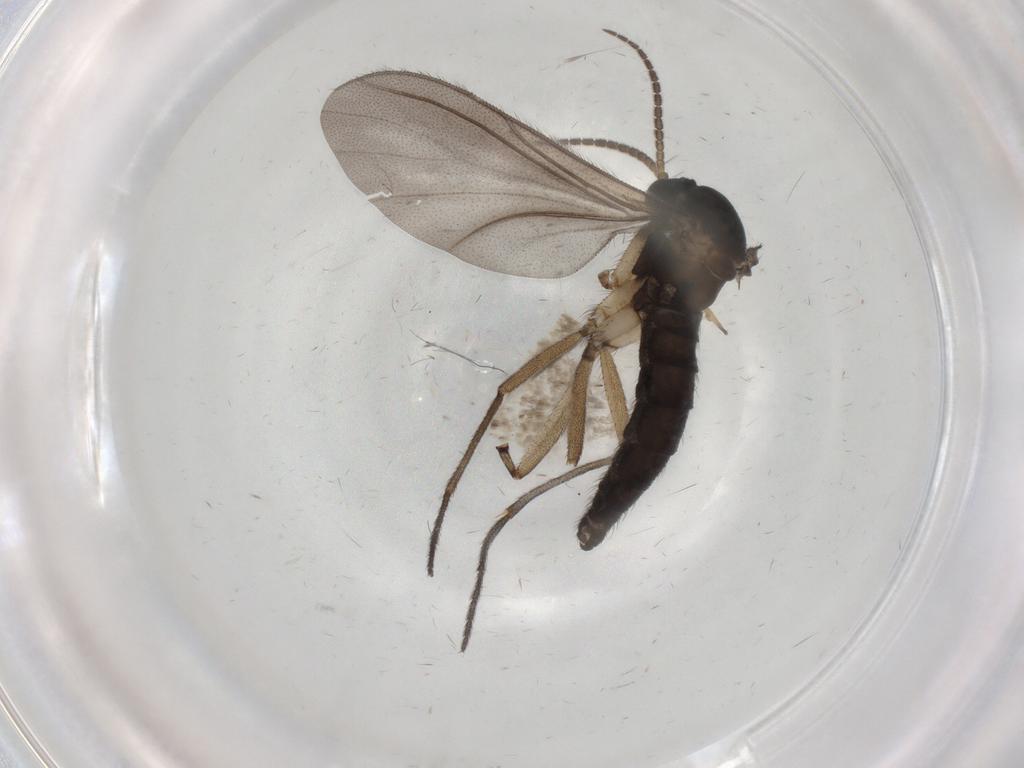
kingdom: Animalia
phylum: Arthropoda
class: Insecta
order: Diptera
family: Sciaridae
